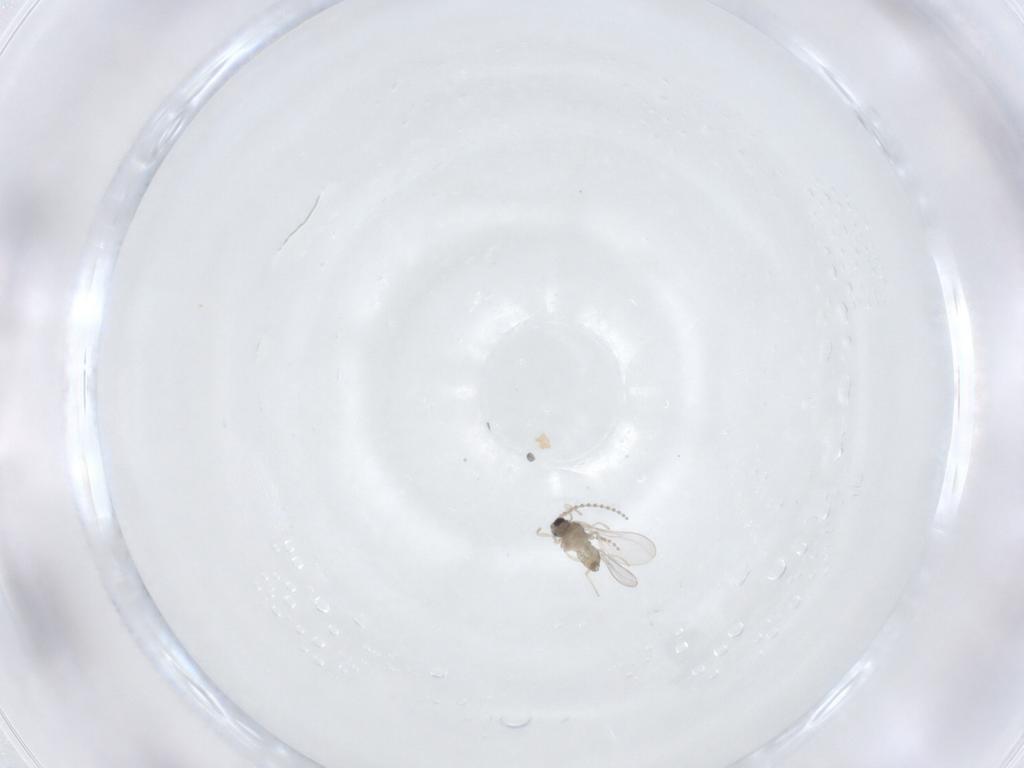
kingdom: Animalia
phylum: Arthropoda
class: Insecta
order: Diptera
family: Cecidomyiidae
